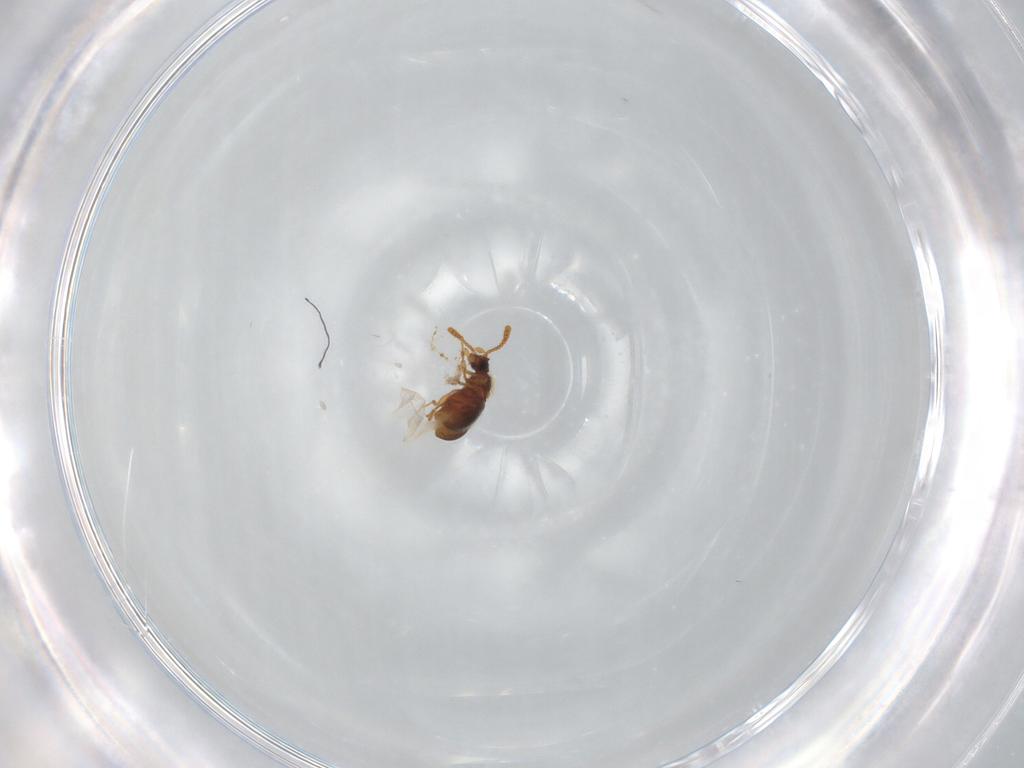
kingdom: Animalia
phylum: Arthropoda
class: Insecta
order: Coleoptera
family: Staphylinidae
